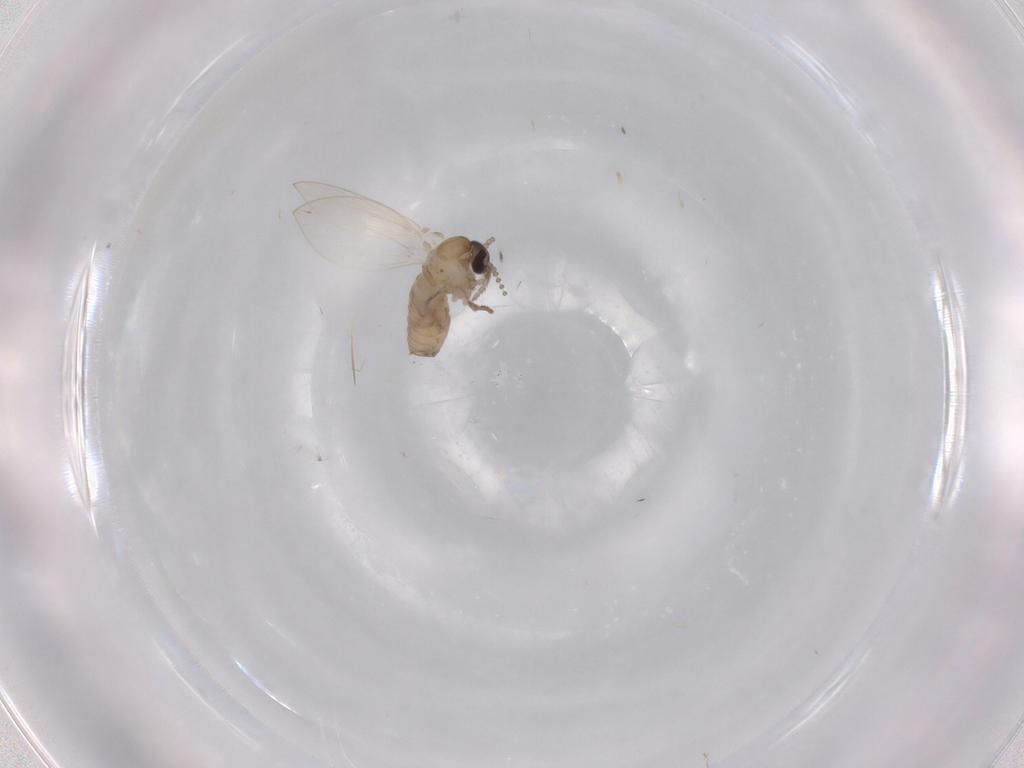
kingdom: Animalia
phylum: Arthropoda
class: Insecta
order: Diptera
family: Psychodidae
